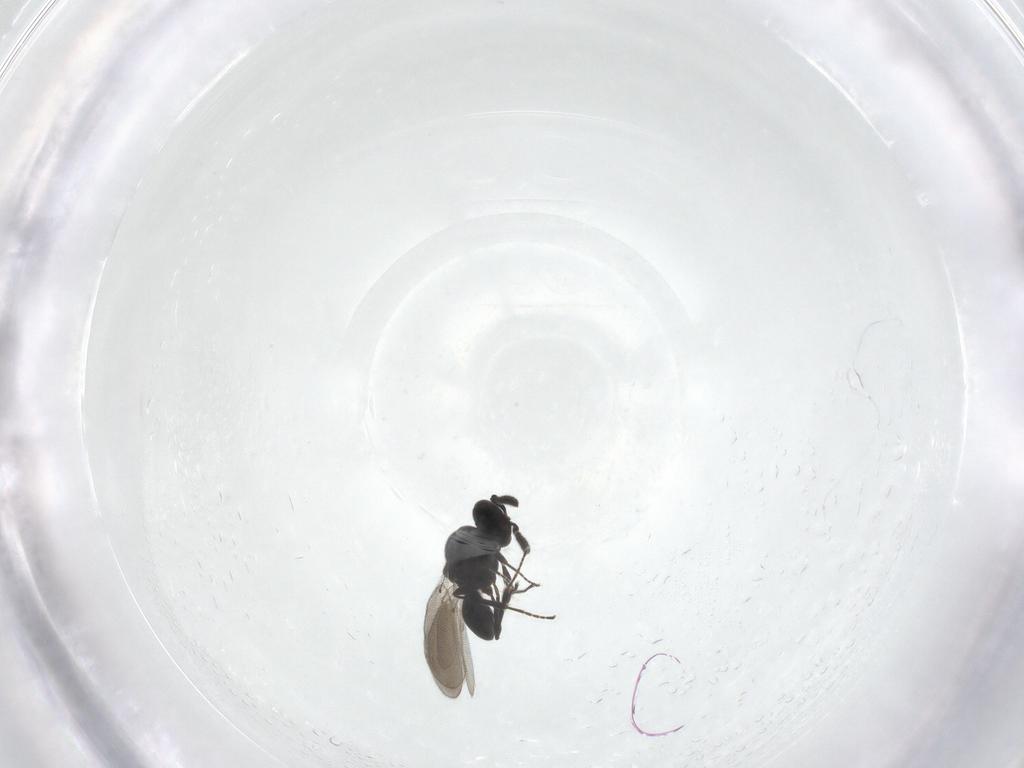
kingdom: Animalia
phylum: Arthropoda
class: Insecta
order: Hymenoptera
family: Platygastridae
